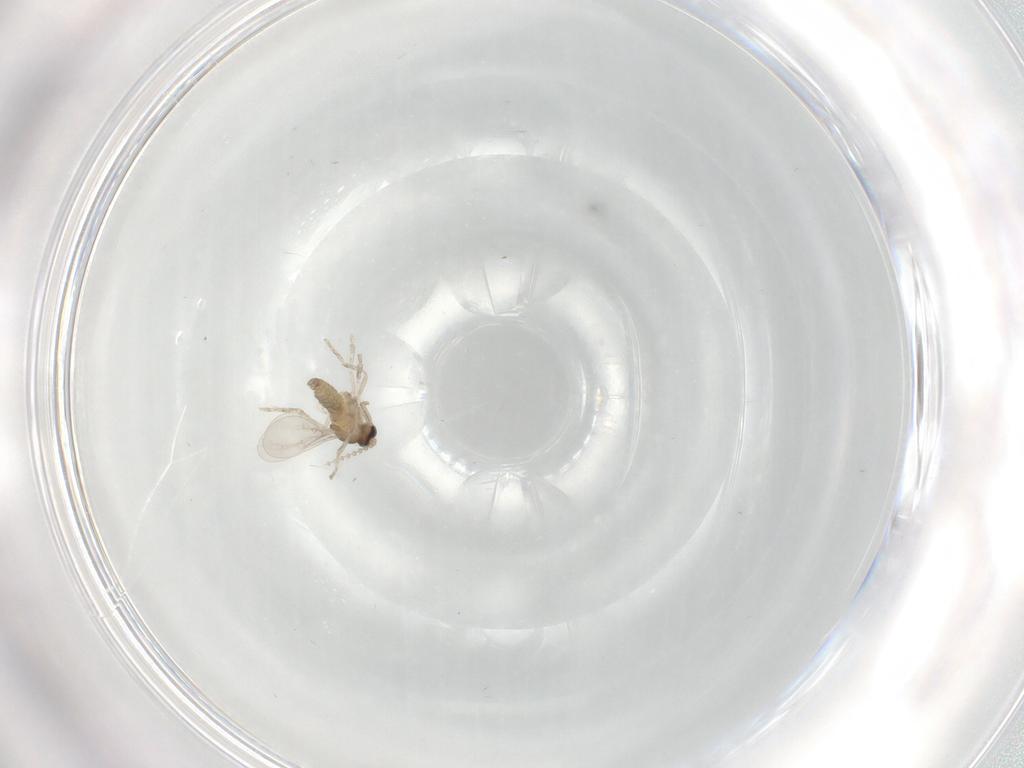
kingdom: Animalia
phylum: Arthropoda
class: Insecta
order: Diptera
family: Cecidomyiidae
